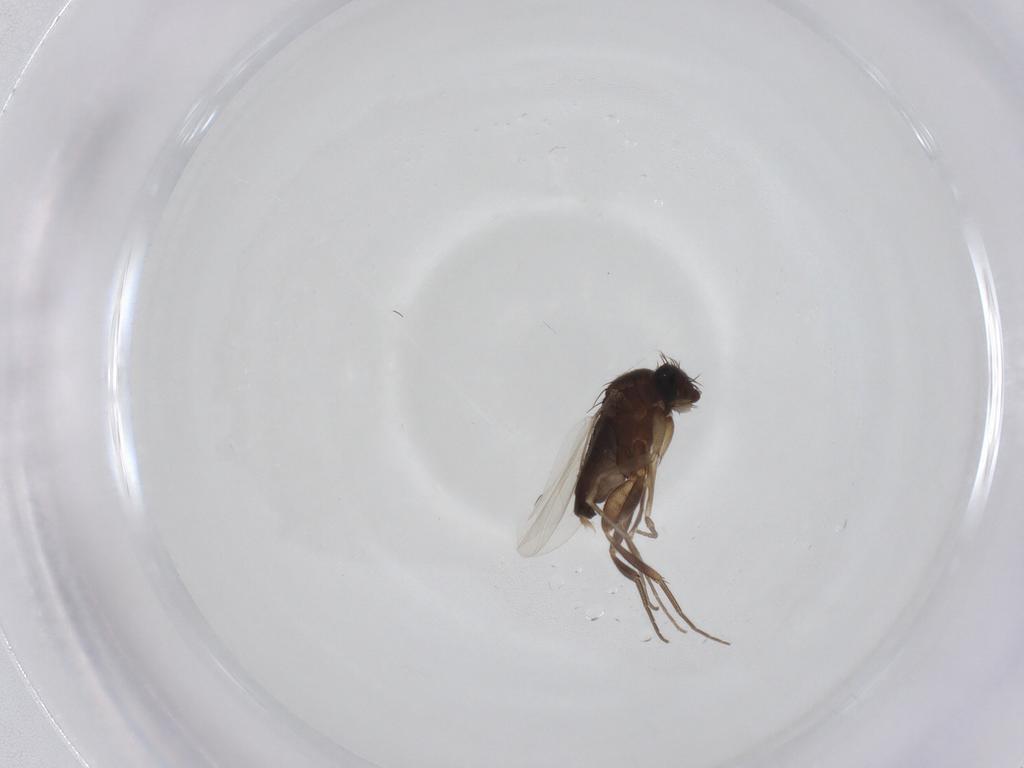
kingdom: Animalia
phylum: Arthropoda
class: Insecta
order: Diptera
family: Phoridae
